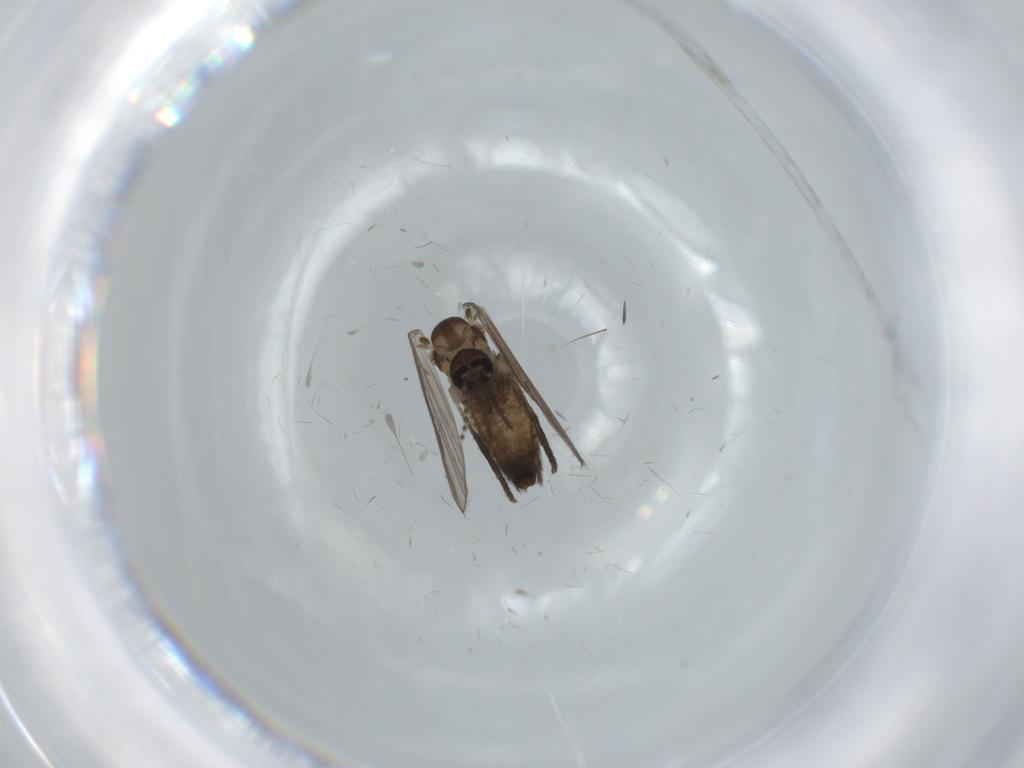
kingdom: Animalia
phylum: Arthropoda
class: Insecta
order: Diptera
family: Psychodidae
